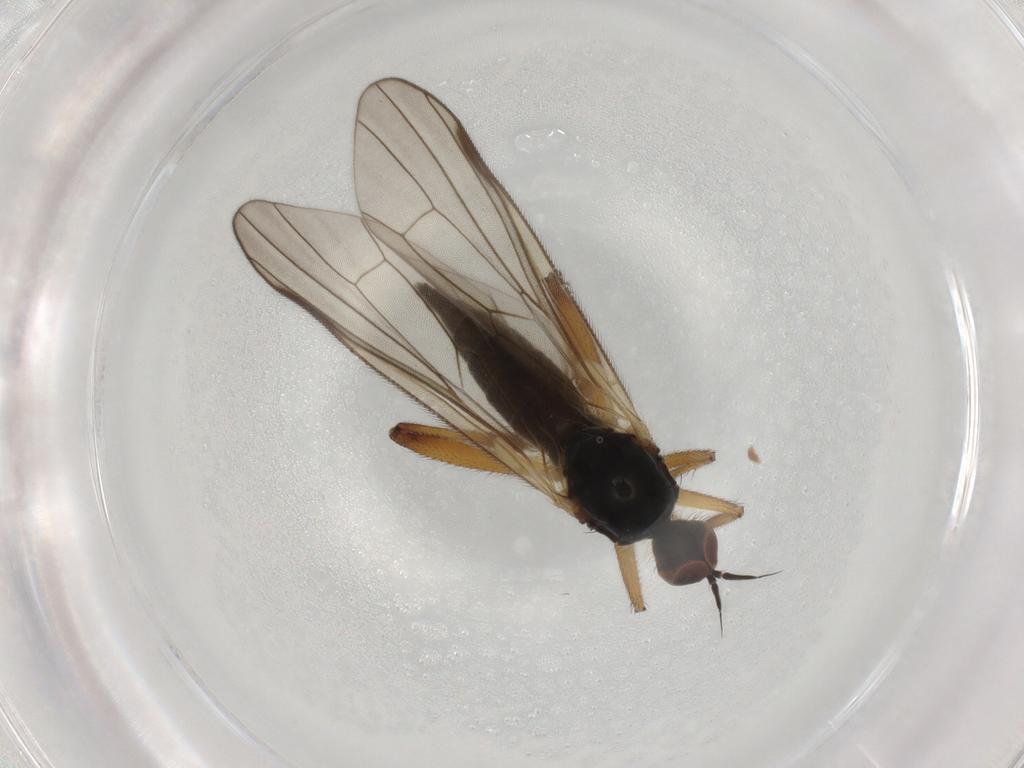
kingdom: Animalia
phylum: Arthropoda
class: Insecta
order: Diptera
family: Hybotidae
